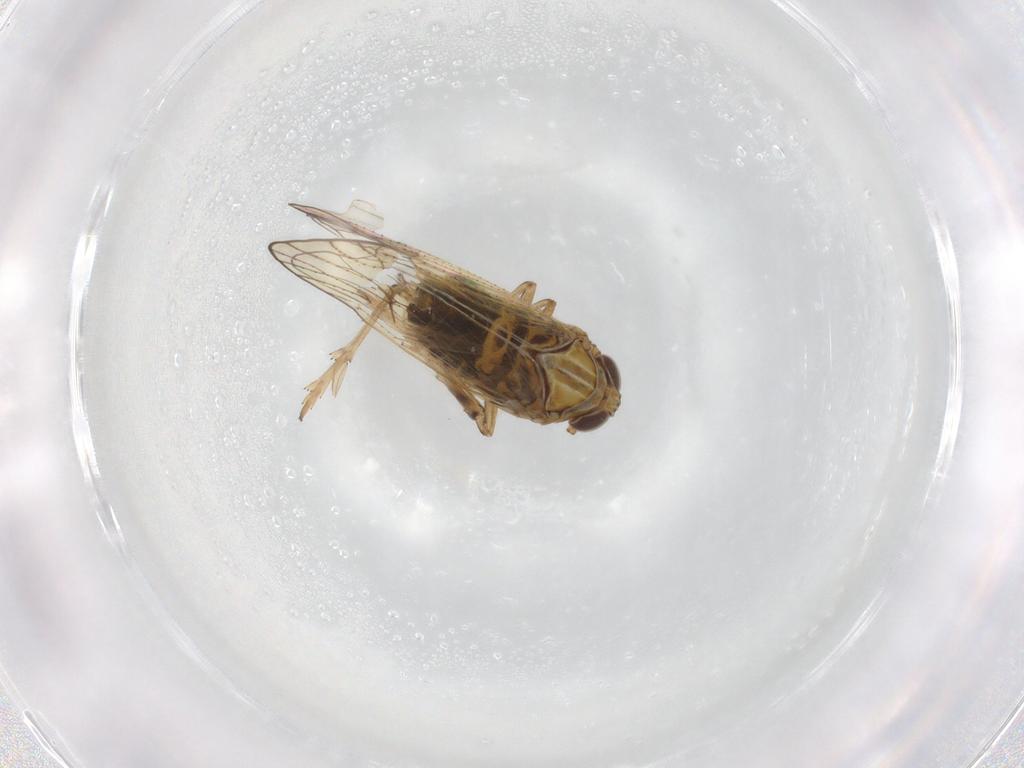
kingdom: Animalia
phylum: Arthropoda
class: Insecta
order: Hemiptera
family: Delphacidae
